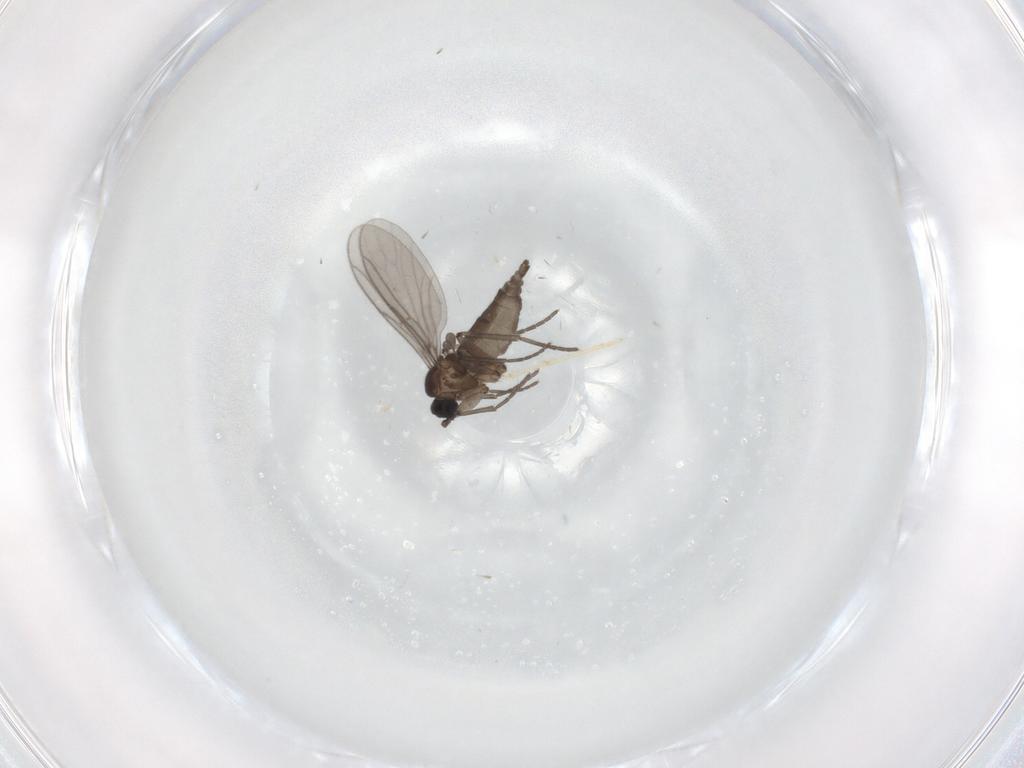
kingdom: Animalia
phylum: Arthropoda
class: Insecta
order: Diptera
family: Chironomidae
